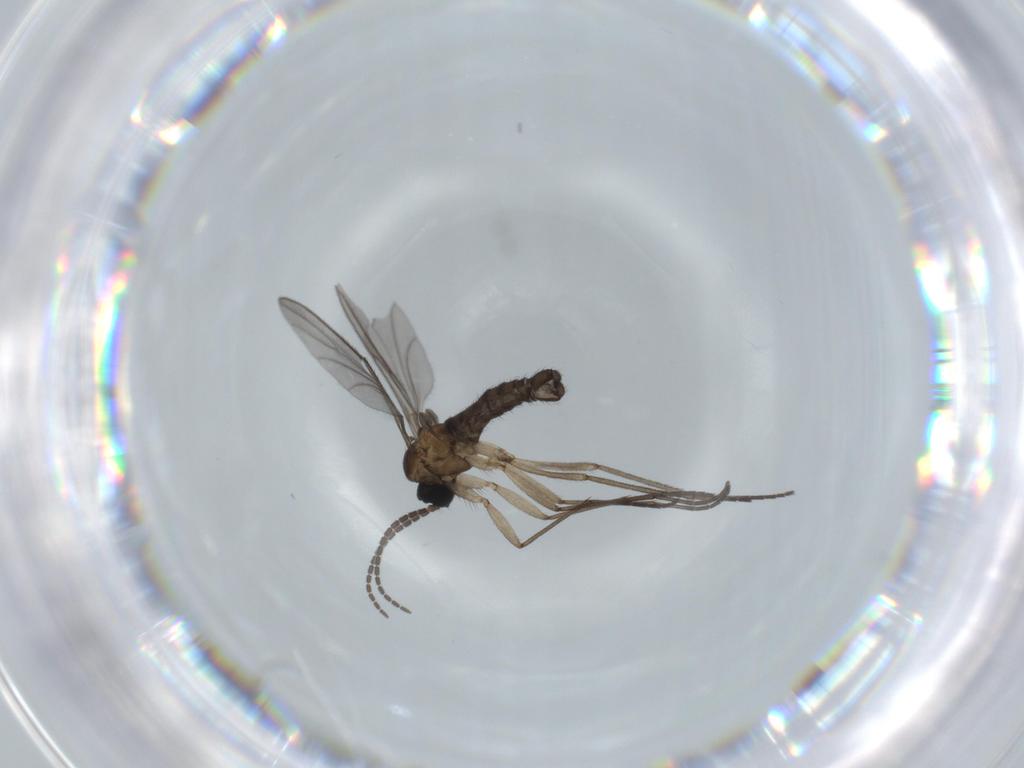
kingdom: Animalia
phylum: Arthropoda
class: Insecta
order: Diptera
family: Sciaridae
